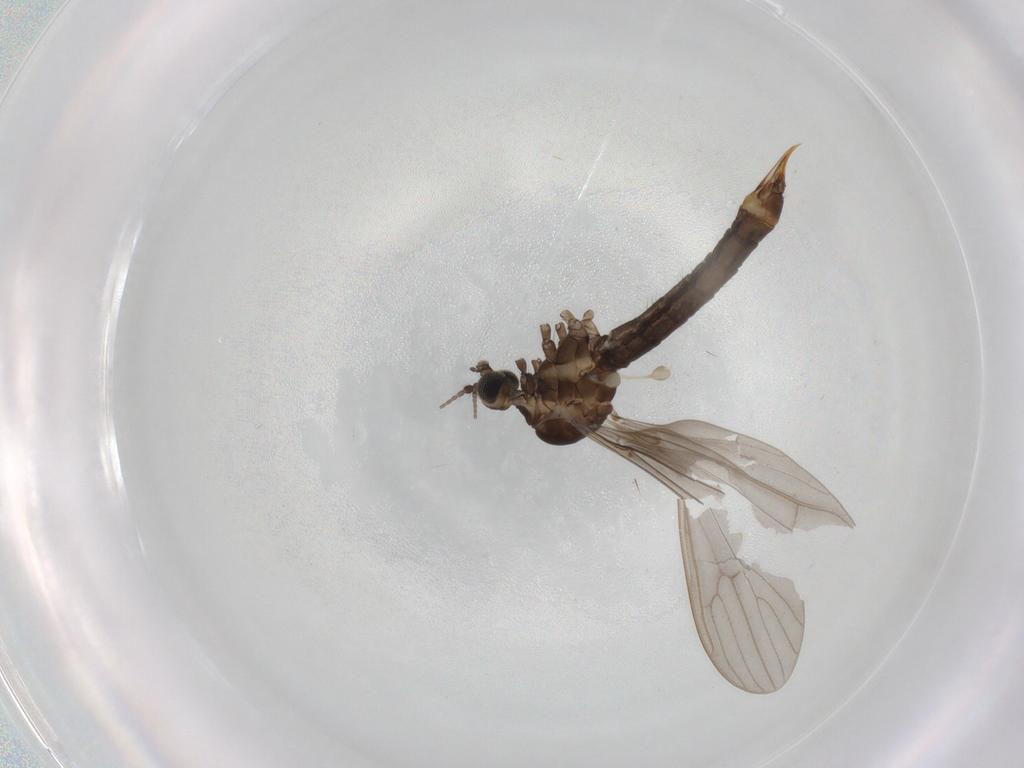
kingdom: Animalia
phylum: Arthropoda
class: Insecta
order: Diptera
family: Limoniidae
